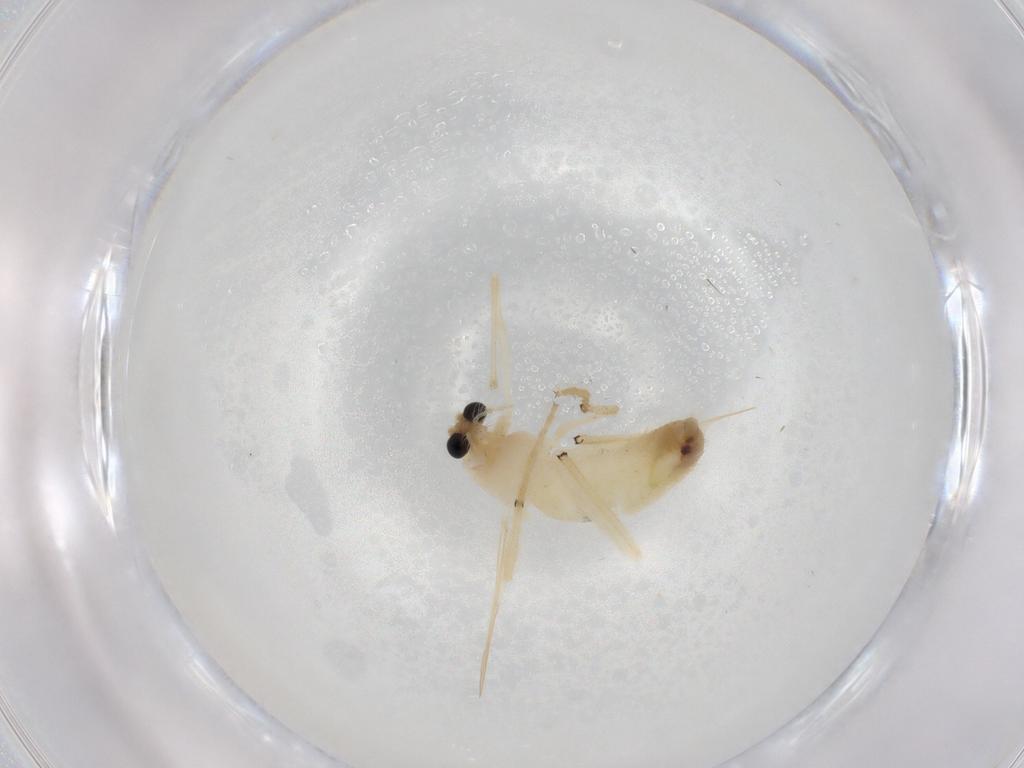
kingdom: Animalia
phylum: Arthropoda
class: Insecta
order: Diptera
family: Chironomidae
